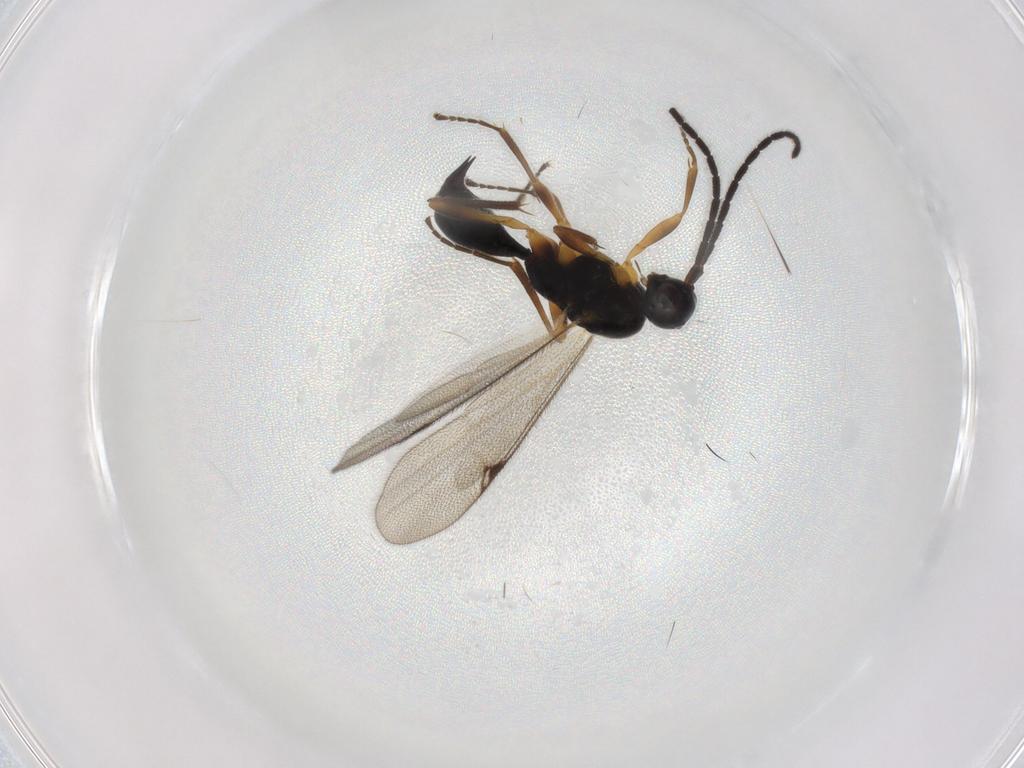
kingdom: Animalia
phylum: Arthropoda
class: Insecta
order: Hymenoptera
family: Proctotrupidae
